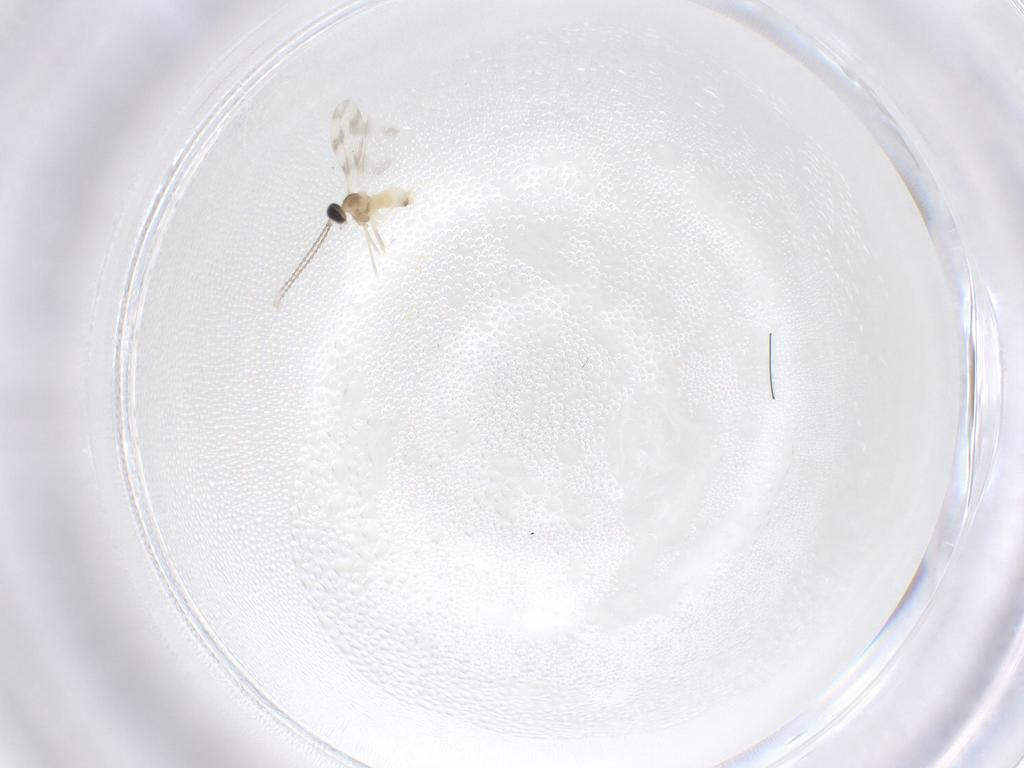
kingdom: Animalia
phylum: Arthropoda
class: Insecta
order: Diptera
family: Cecidomyiidae
